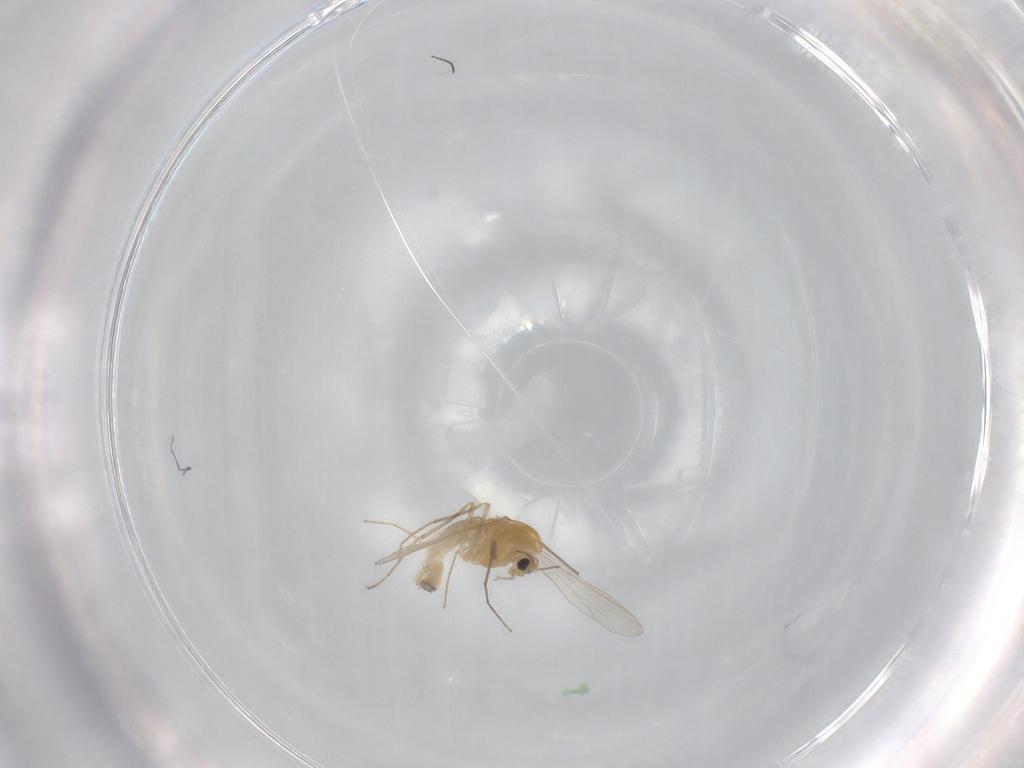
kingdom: Animalia
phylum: Arthropoda
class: Insecta
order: Diptera
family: Chironomidae
